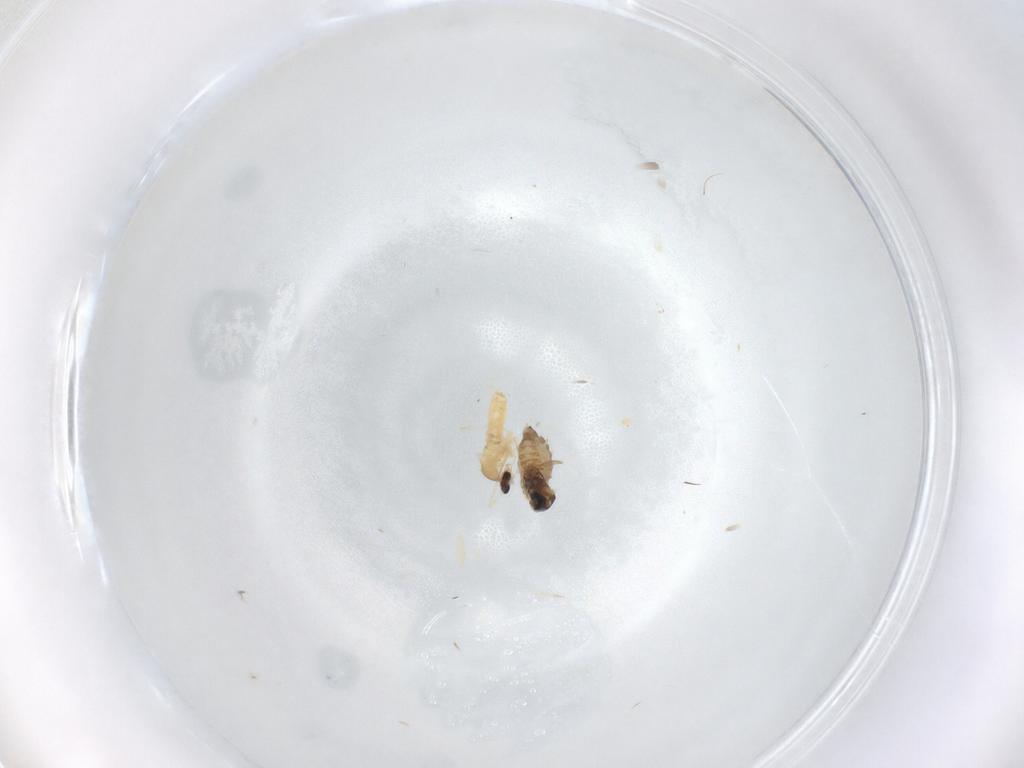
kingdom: Animalia
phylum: Arthropoda
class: Insecta
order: Diptera
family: Cecidomyiidae
